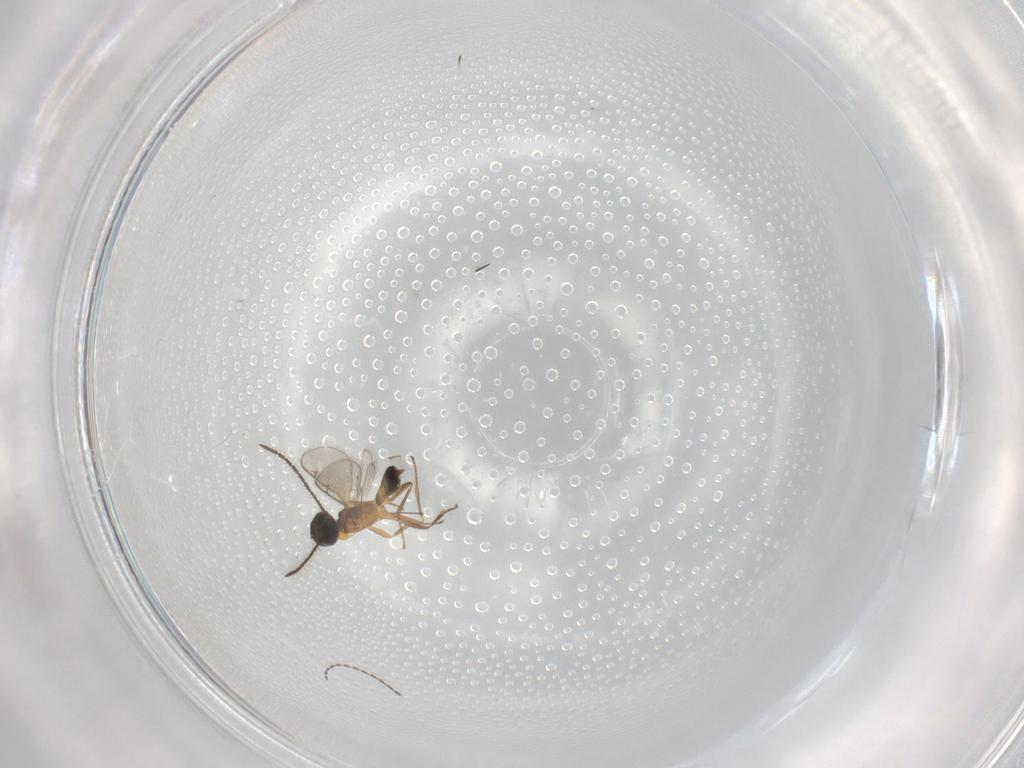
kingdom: Animalia
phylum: Arthropoda
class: Insecta
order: Hymenoptera
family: Eupelmidae
